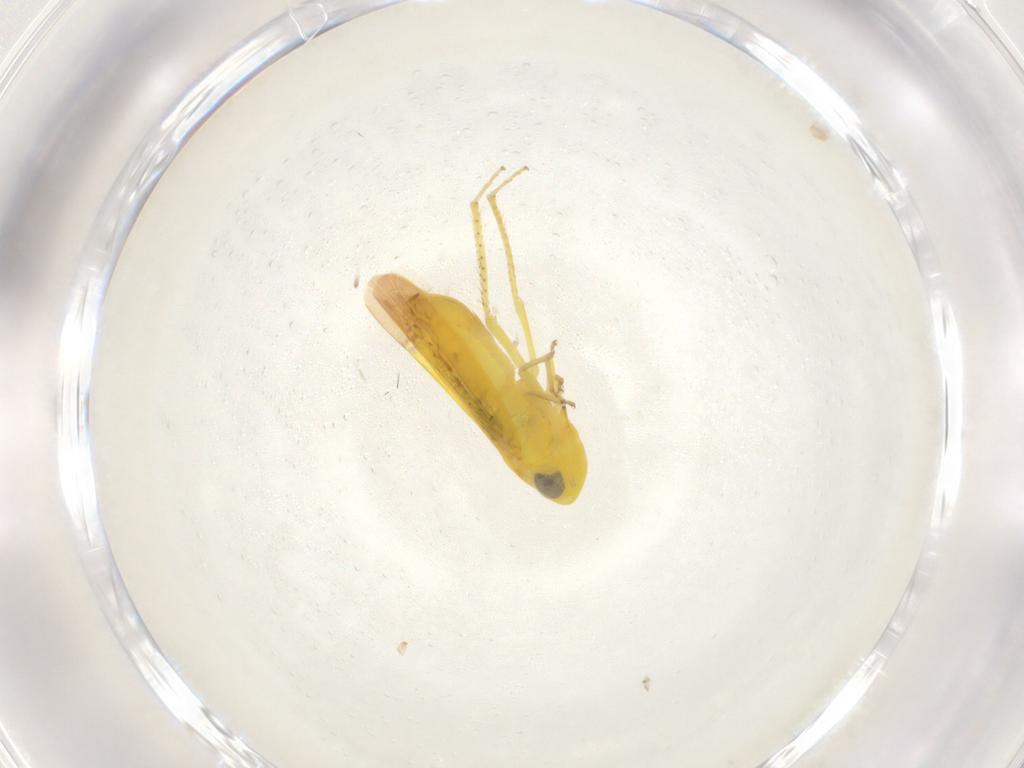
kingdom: Animalia
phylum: Arthropoda
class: Insecta
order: Hemiptera
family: Cicadellidae
